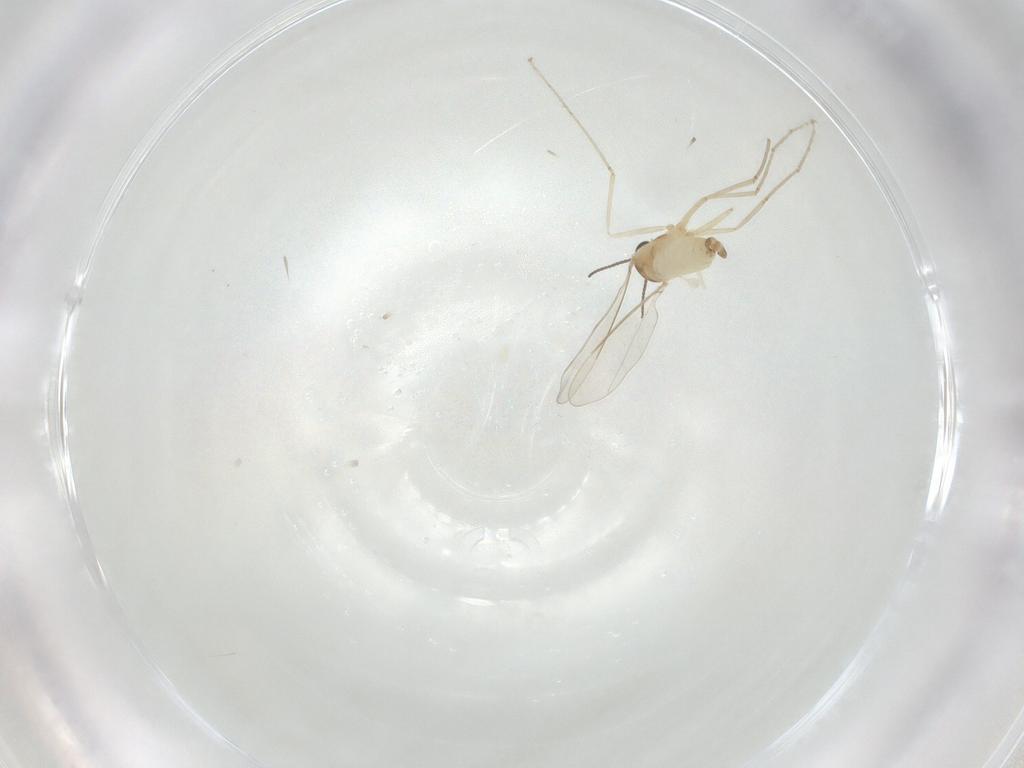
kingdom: Animalia
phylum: Arthropoda
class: Insecta
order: Diptera
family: Cecidomyiidae
